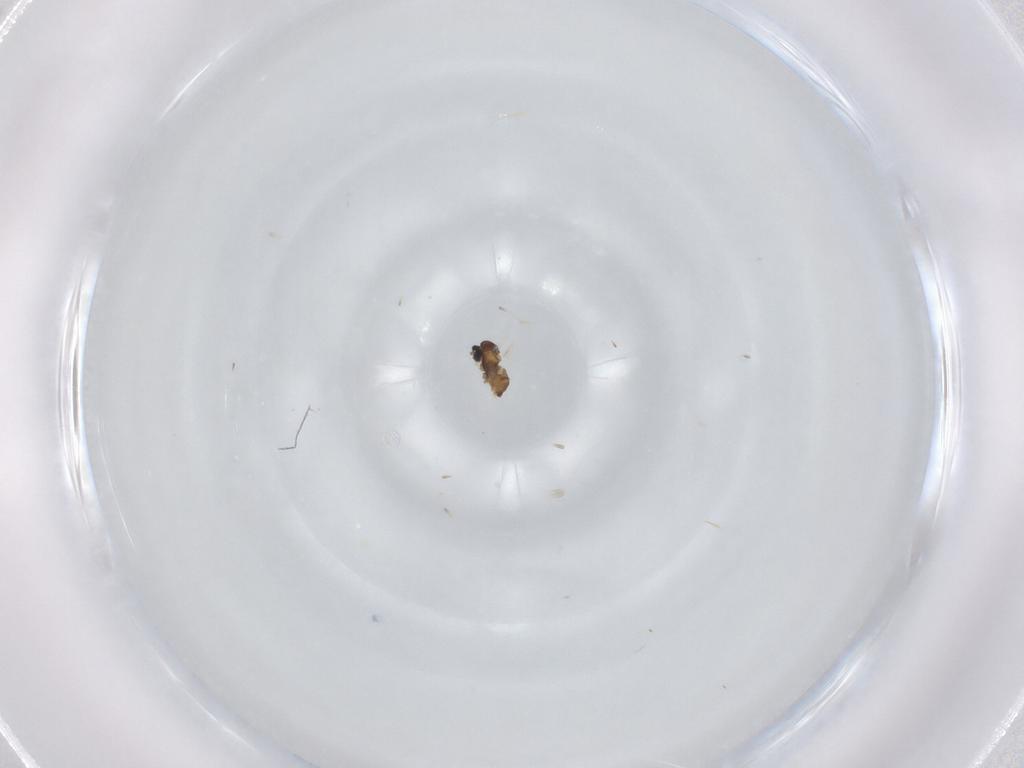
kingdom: Animalia
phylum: Arthropoda
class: Insecta
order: Diptera
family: Cecidomyiidae
